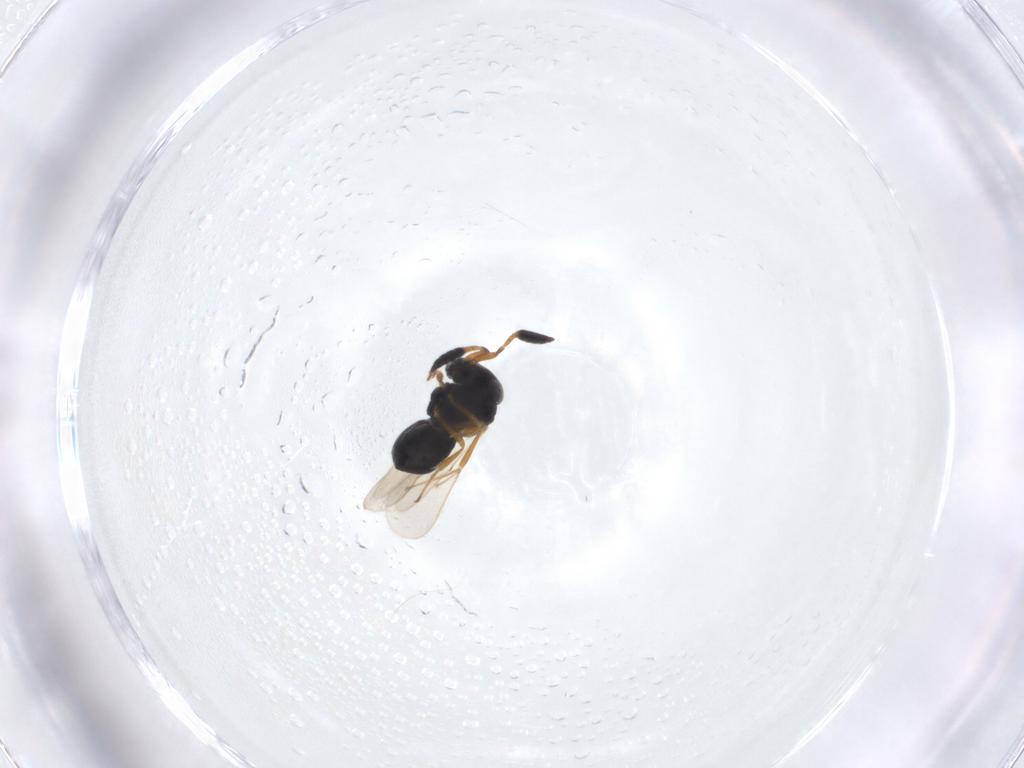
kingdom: Animalia
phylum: Arthropoda
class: Insecta
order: Hymenoptera
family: Scelionidae
